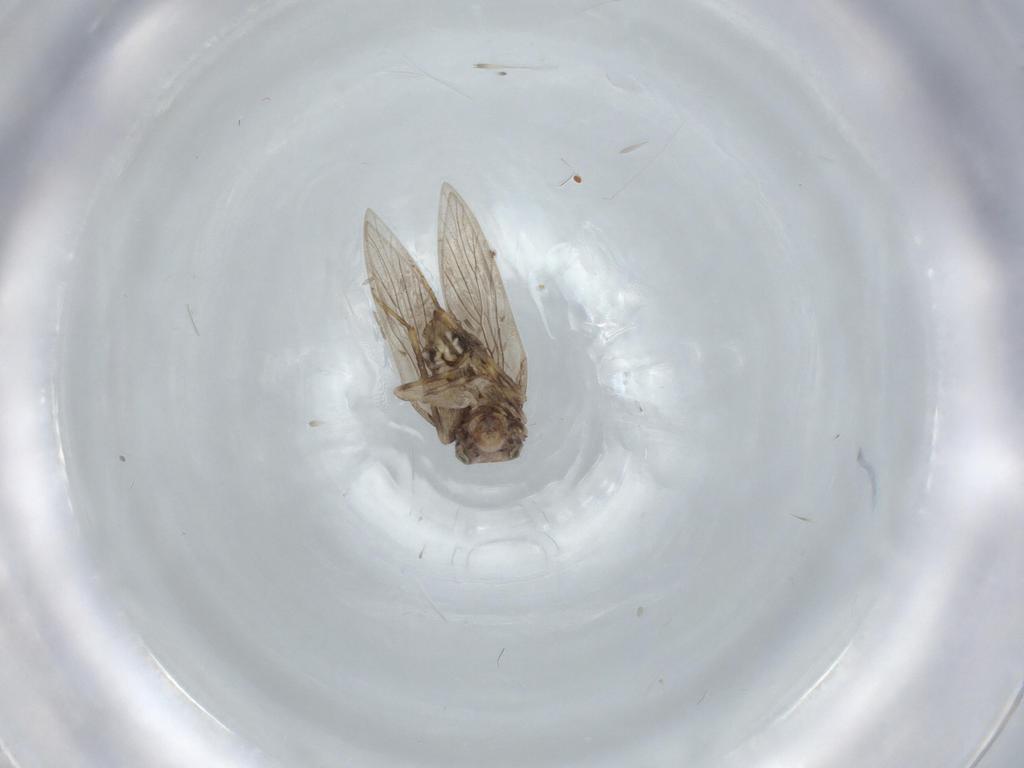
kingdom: Animalia
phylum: Arthropoda
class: Insecta
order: Psocodea
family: Lepidopsocidae
